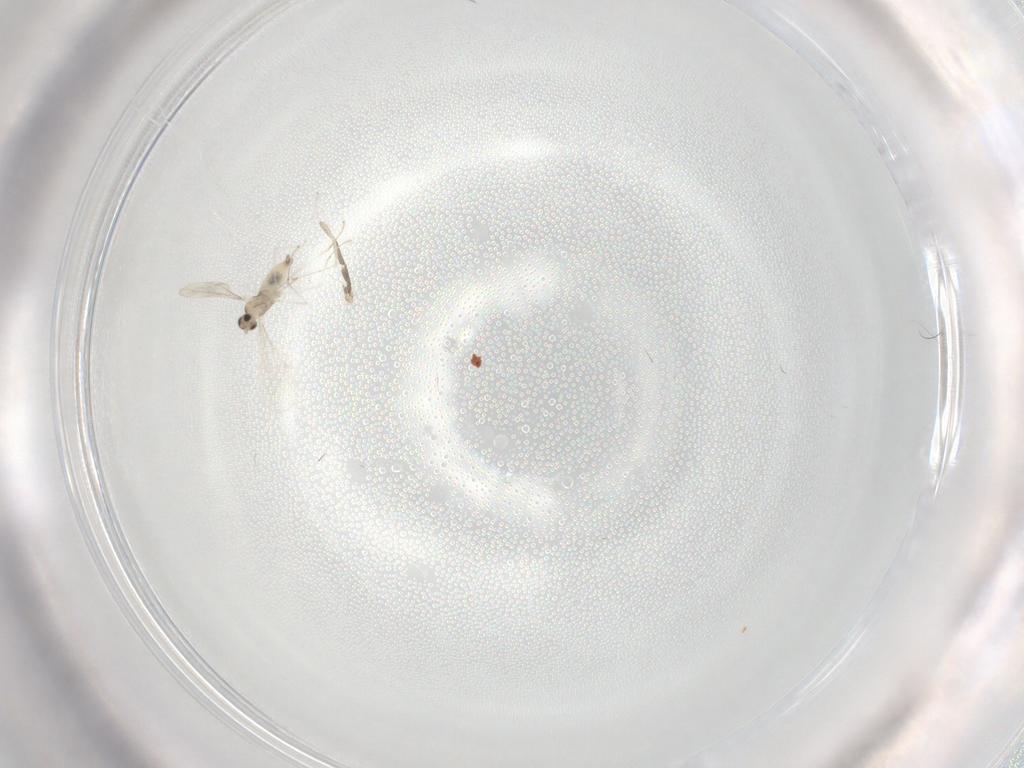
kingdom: Animalia
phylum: Arthropoda
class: Insecta
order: Diptera
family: Cecidomyiidae
